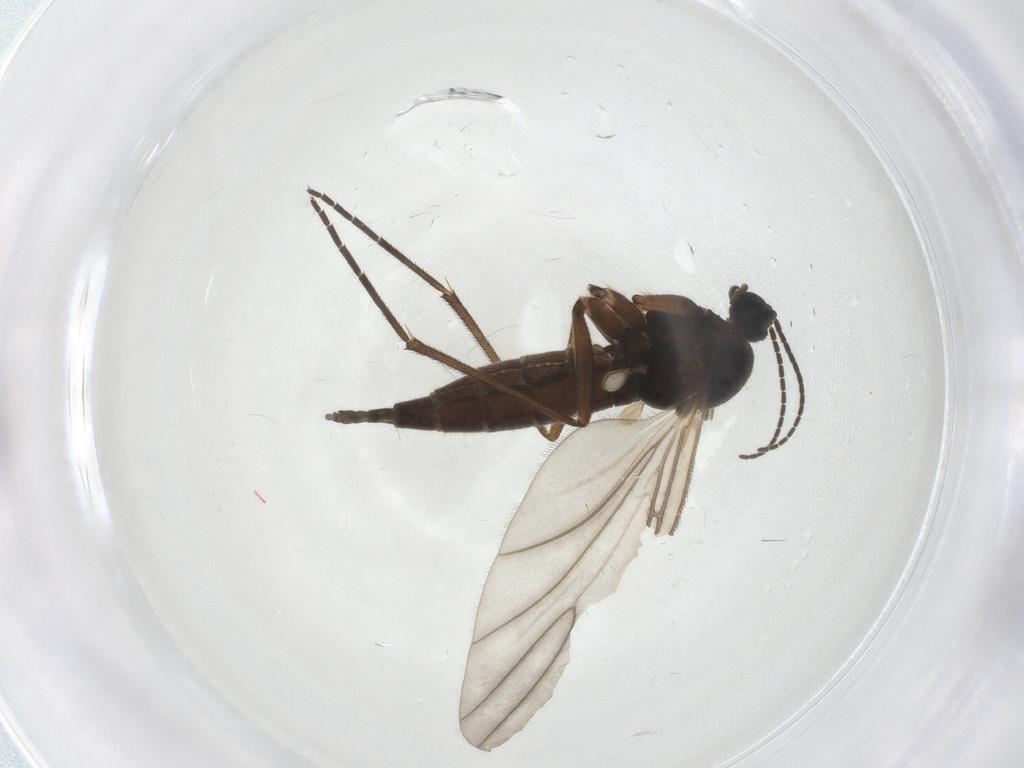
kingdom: Animalia
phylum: Arthropoda
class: Insecta
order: Diptera
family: Sciaridae
